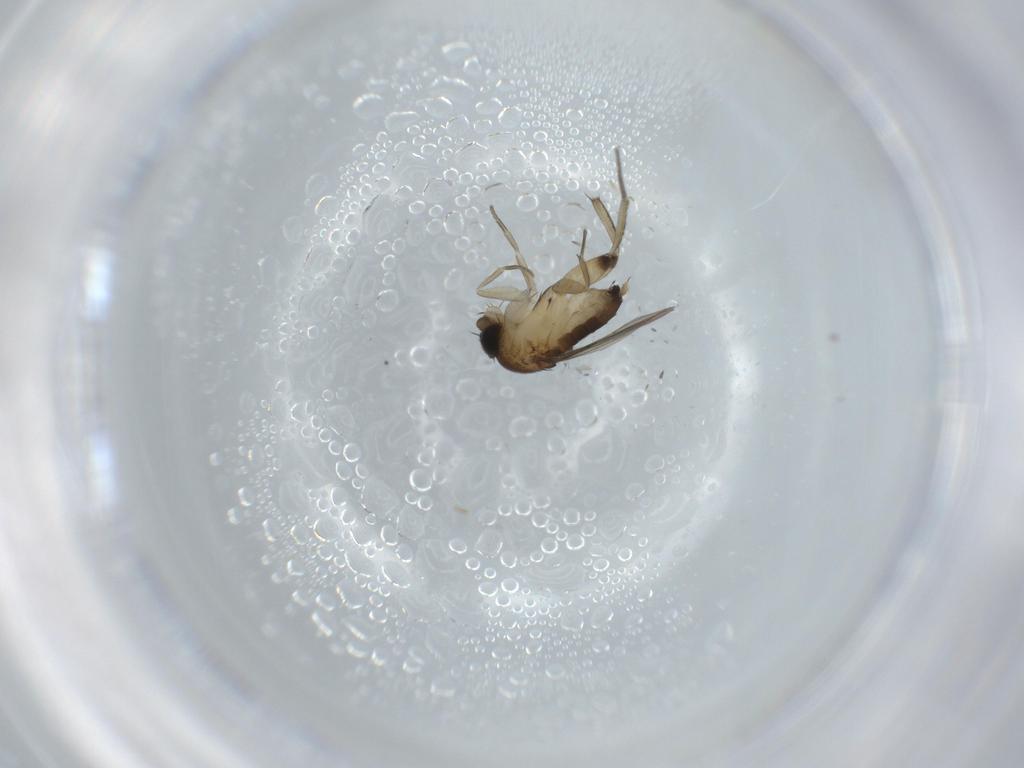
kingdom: Animalia
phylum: Arthropoda
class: Insecta
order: Diptera
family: Phoridae
